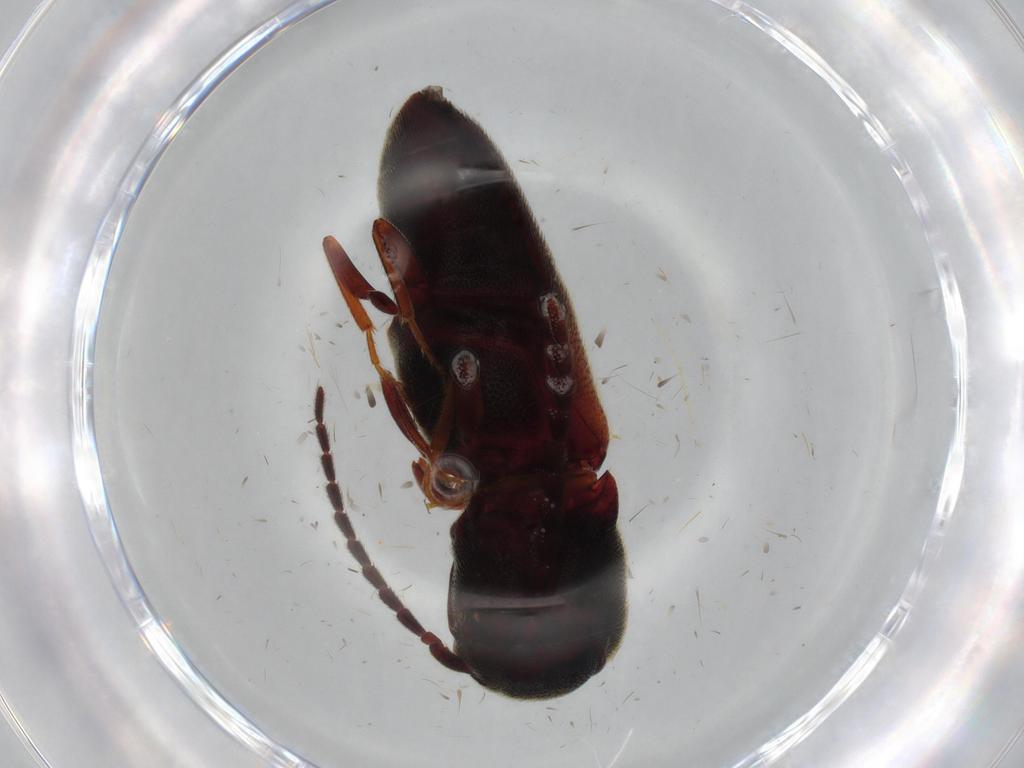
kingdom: Animalia
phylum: Arthropoda
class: Insecta
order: Coleoptera
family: Eucnemidae
